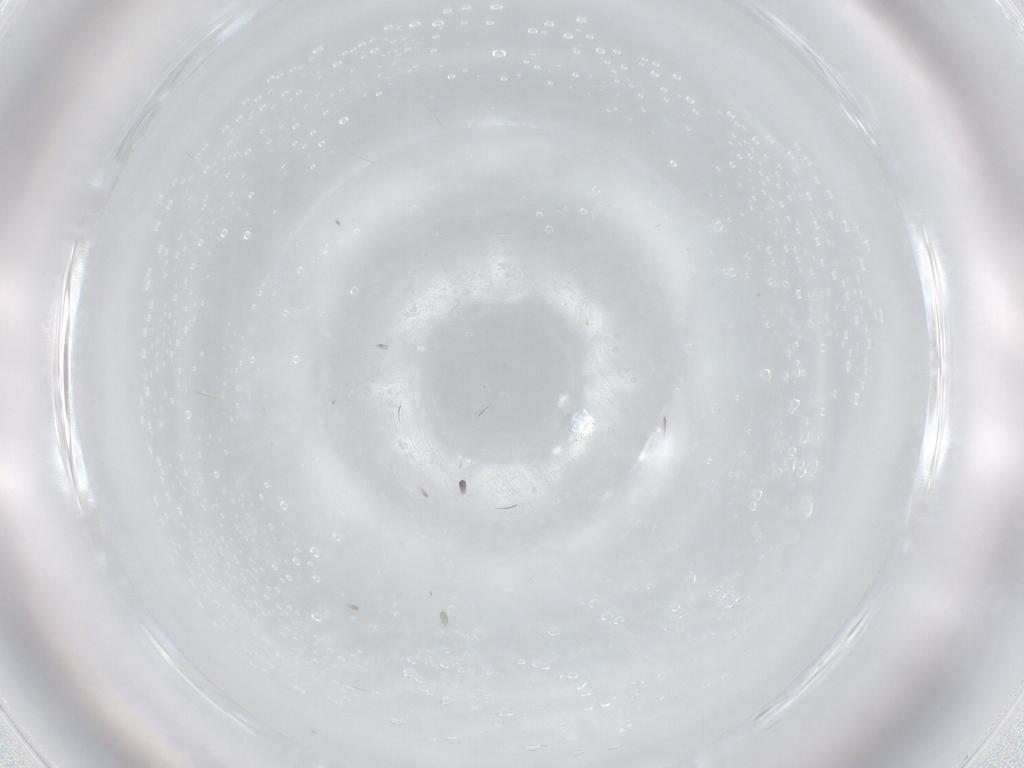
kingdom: Animalia
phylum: Arthropoda
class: Insecta
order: Diptera
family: Cecidomyiidae
